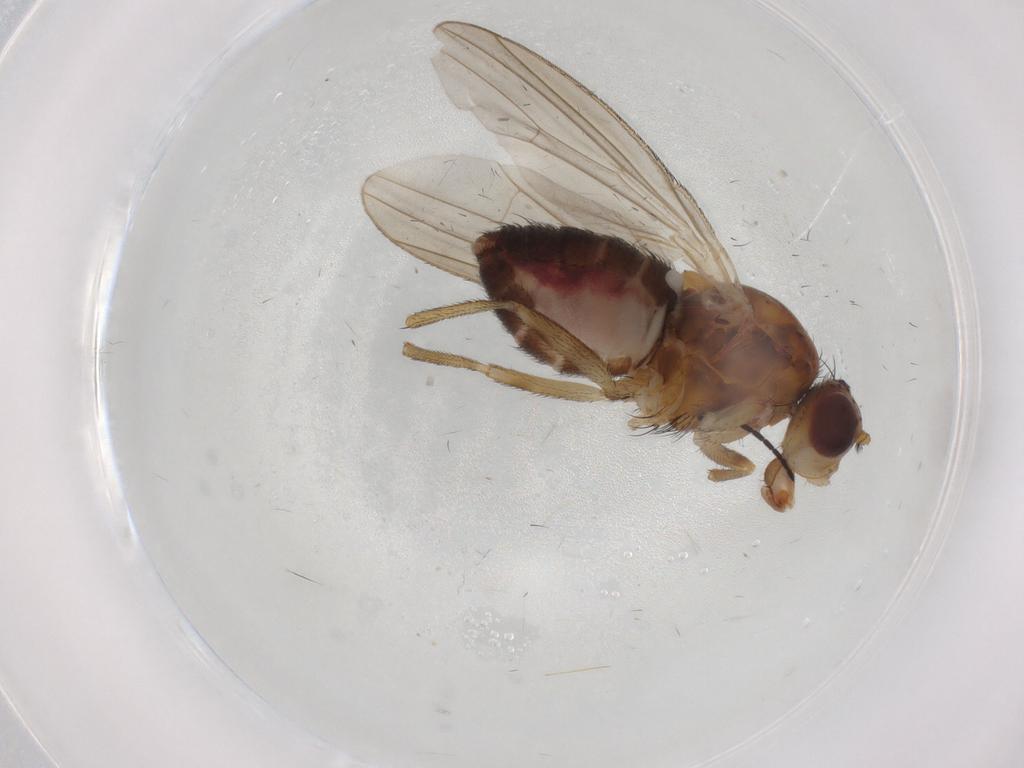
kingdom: Animalia
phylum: Arthropoda
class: Insecta
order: Diptera
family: Heleomyzidae
